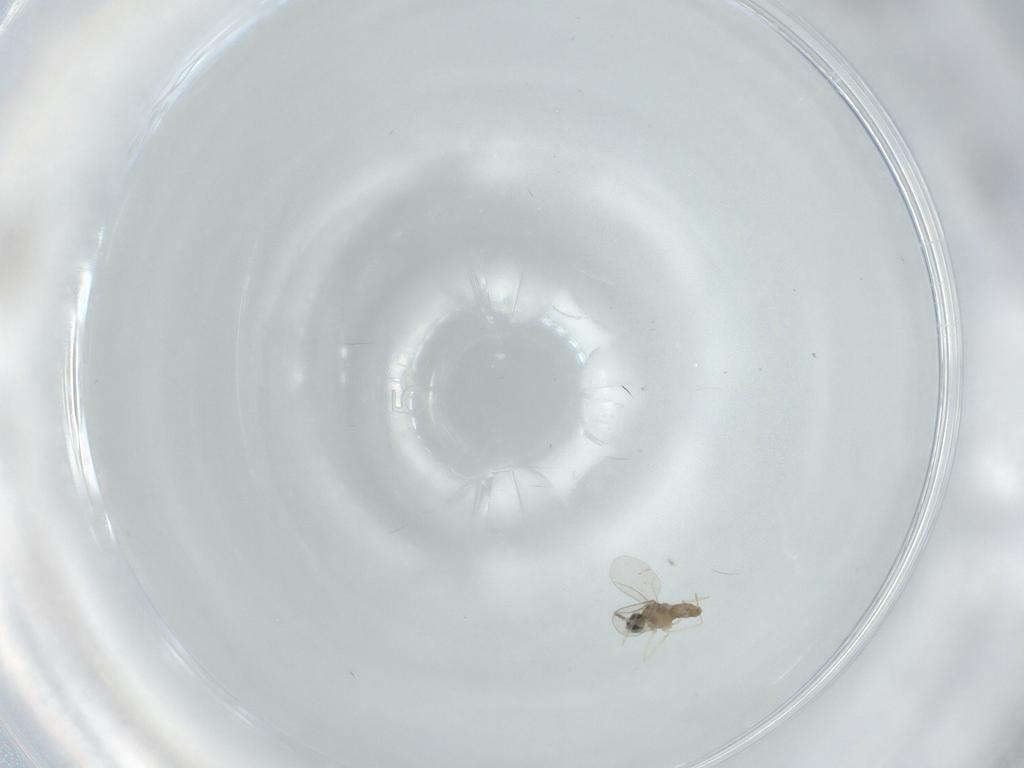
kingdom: Animalia
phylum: Arthropoda
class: Insecta
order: Diptera
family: Cecidomyiidae
